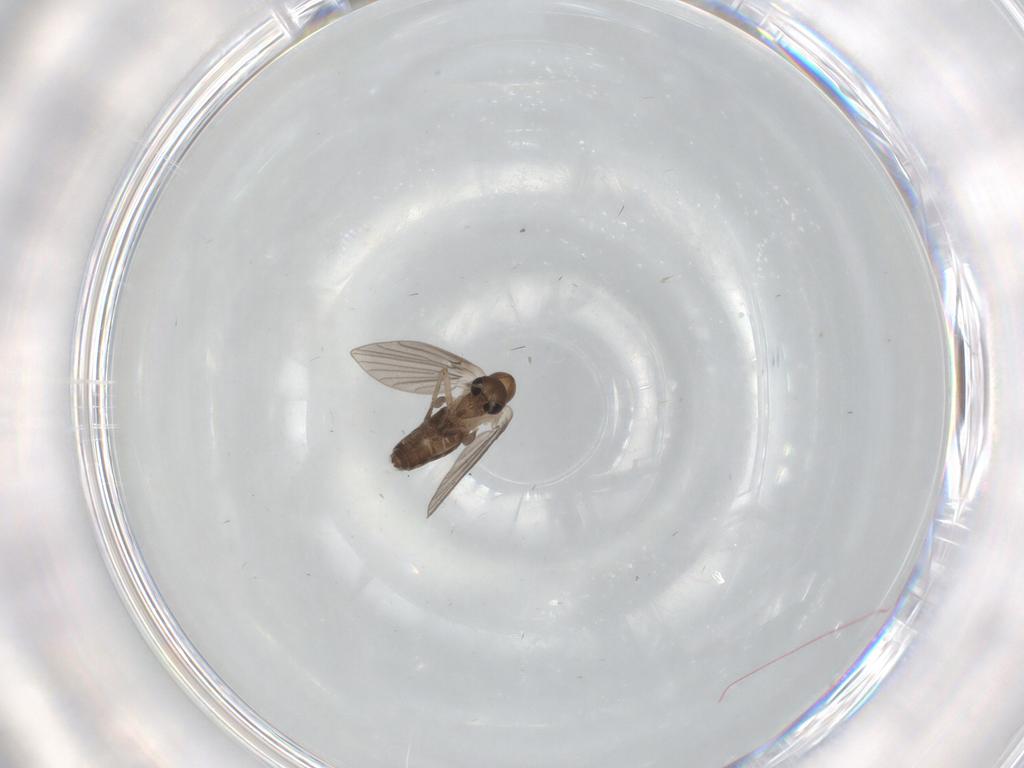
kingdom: Animalia
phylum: Arthropoda
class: Insecta
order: Diptera
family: Psychodidae
